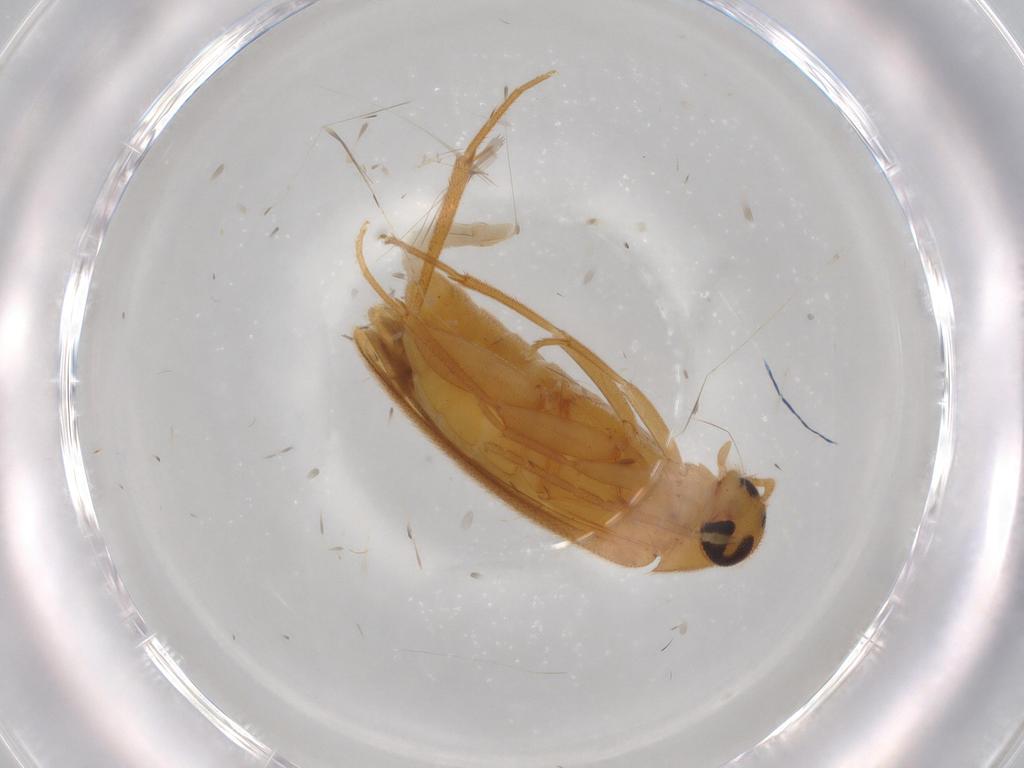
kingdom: Animalia
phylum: Arthropoda
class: Insecta
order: Coleoptera
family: Scraptiidae
